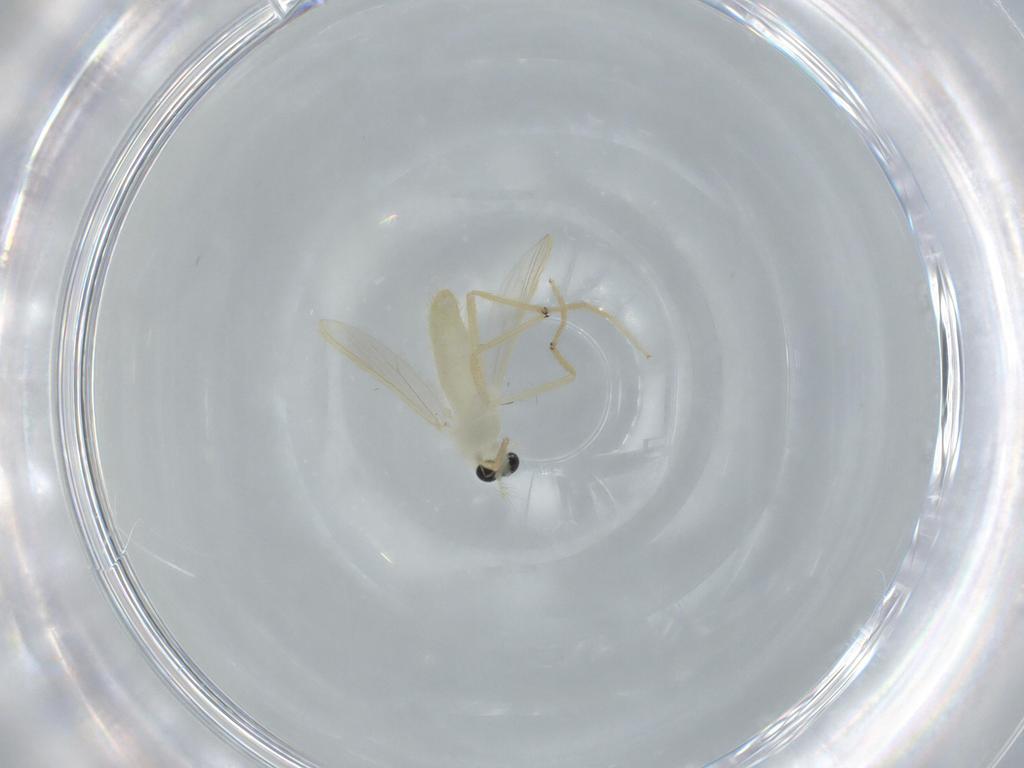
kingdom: Animalia
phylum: Arthropoda
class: Insecta
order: Diptera
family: Chironomidae
